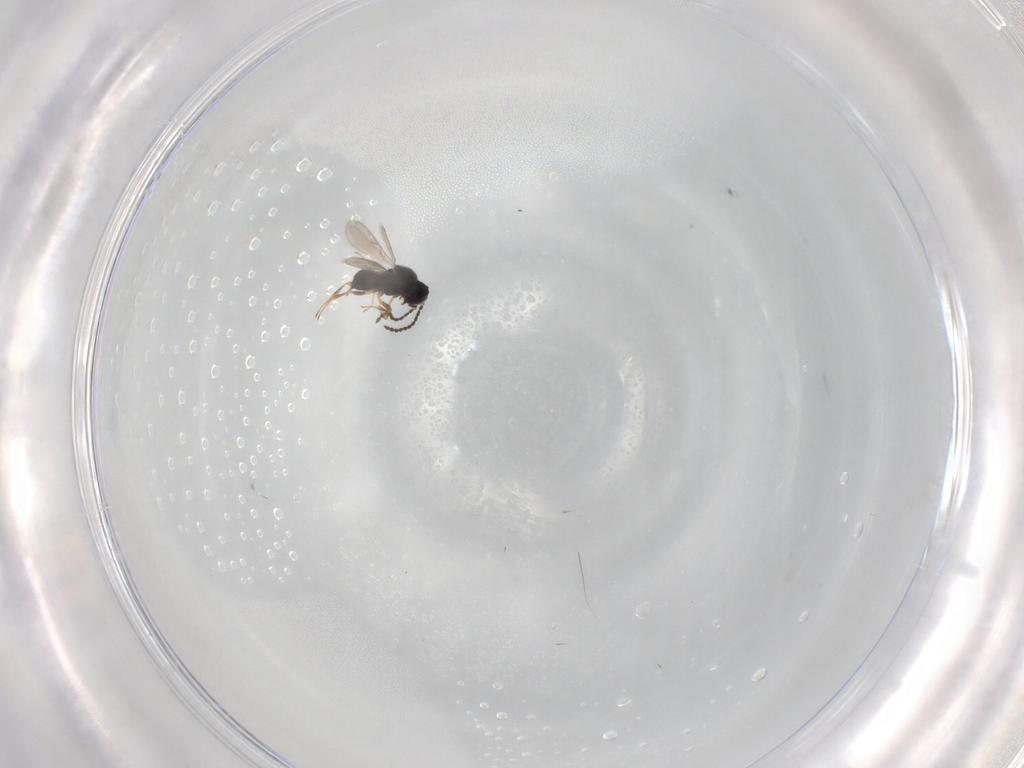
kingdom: Animalia
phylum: Arthropoda
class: Insecta
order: Hymenoptera
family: Scelionidae
